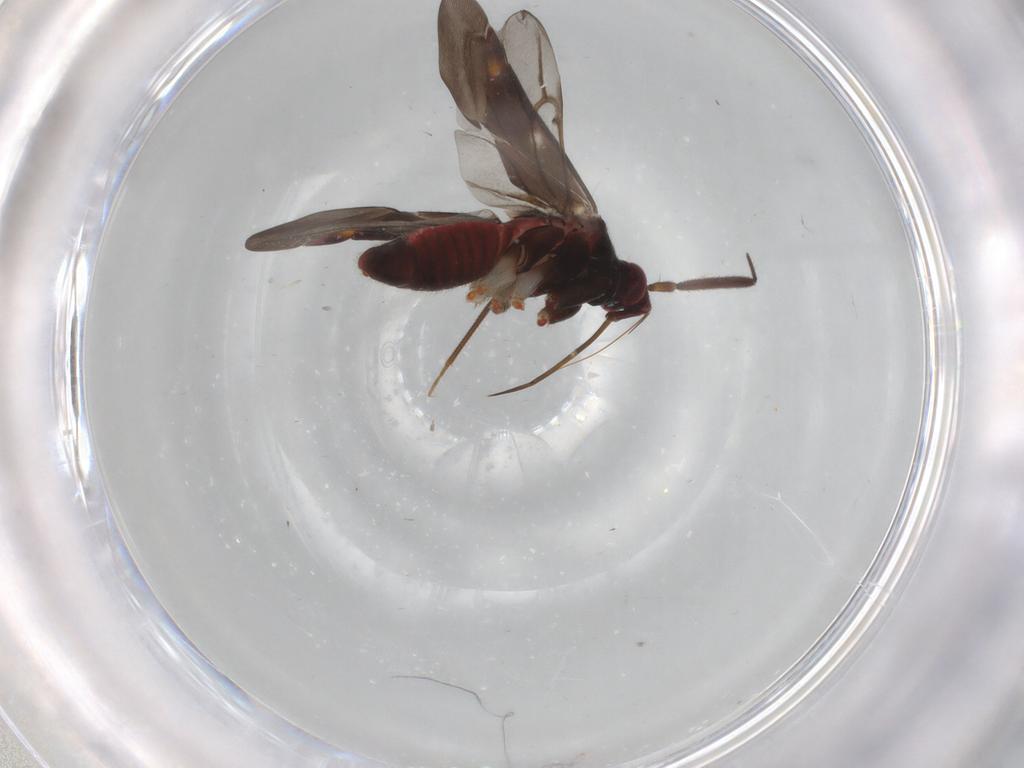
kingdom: Animalia
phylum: Arthropoda
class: Insecta
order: Hemiptera
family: Miridae
